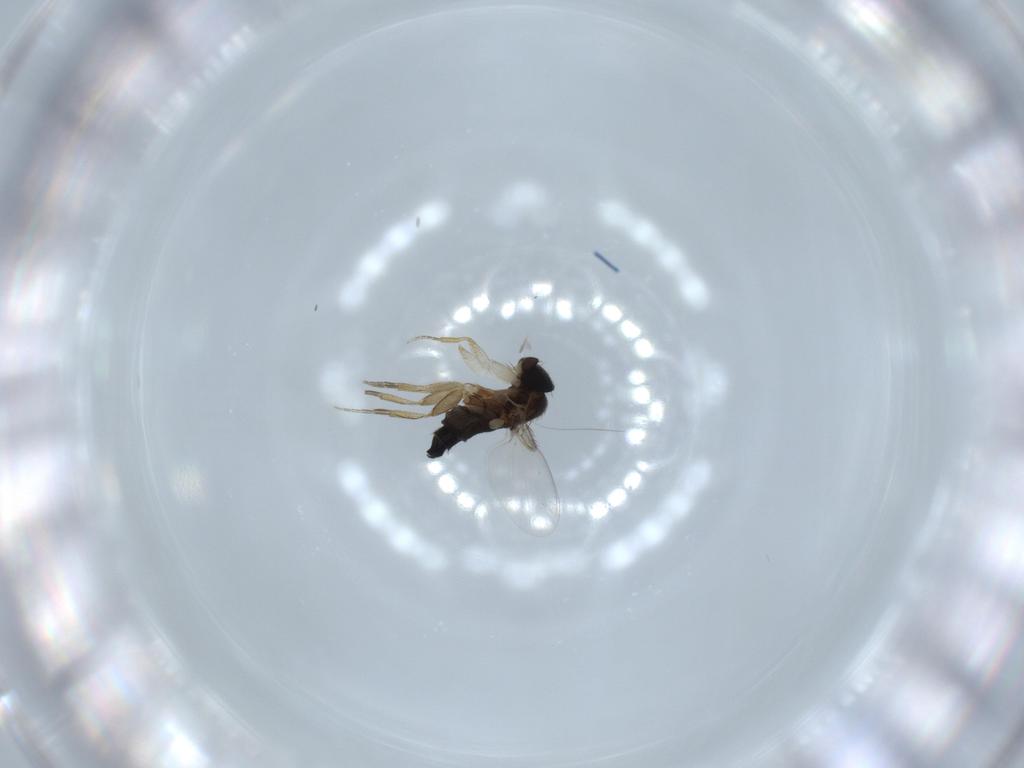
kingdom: Animalia
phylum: Arthropoda
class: Insecta
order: Diptera
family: Phoridae
